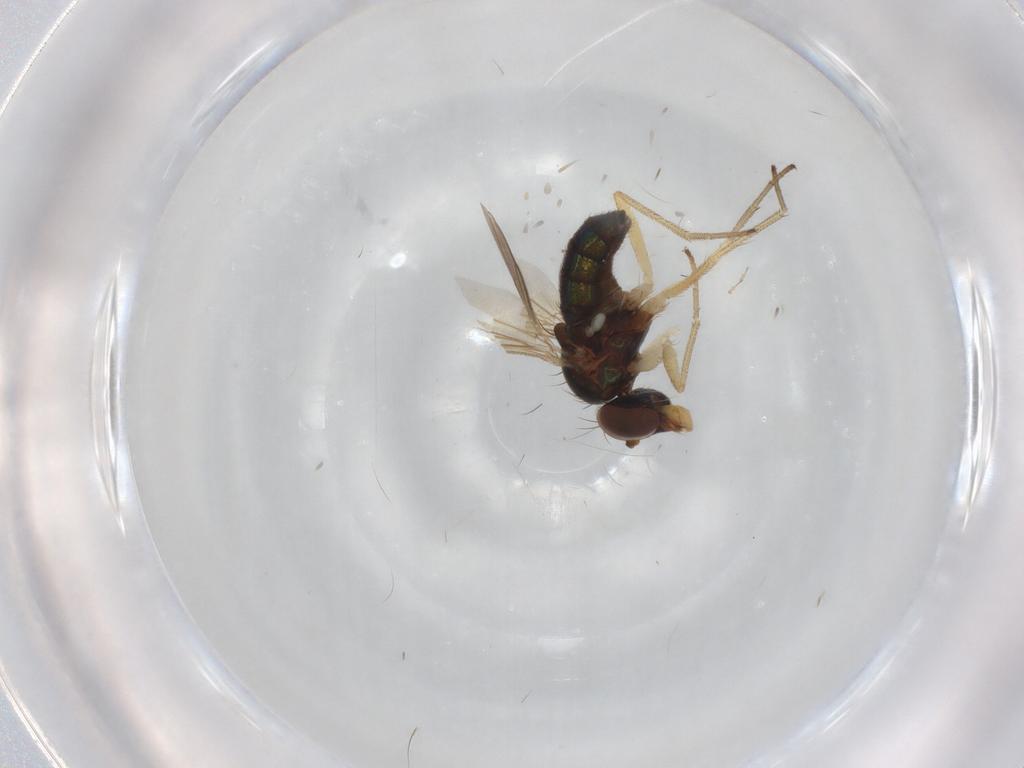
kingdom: Animalia
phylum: Arthropoda
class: Insecta
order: Diptera
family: Dolichopodidae
